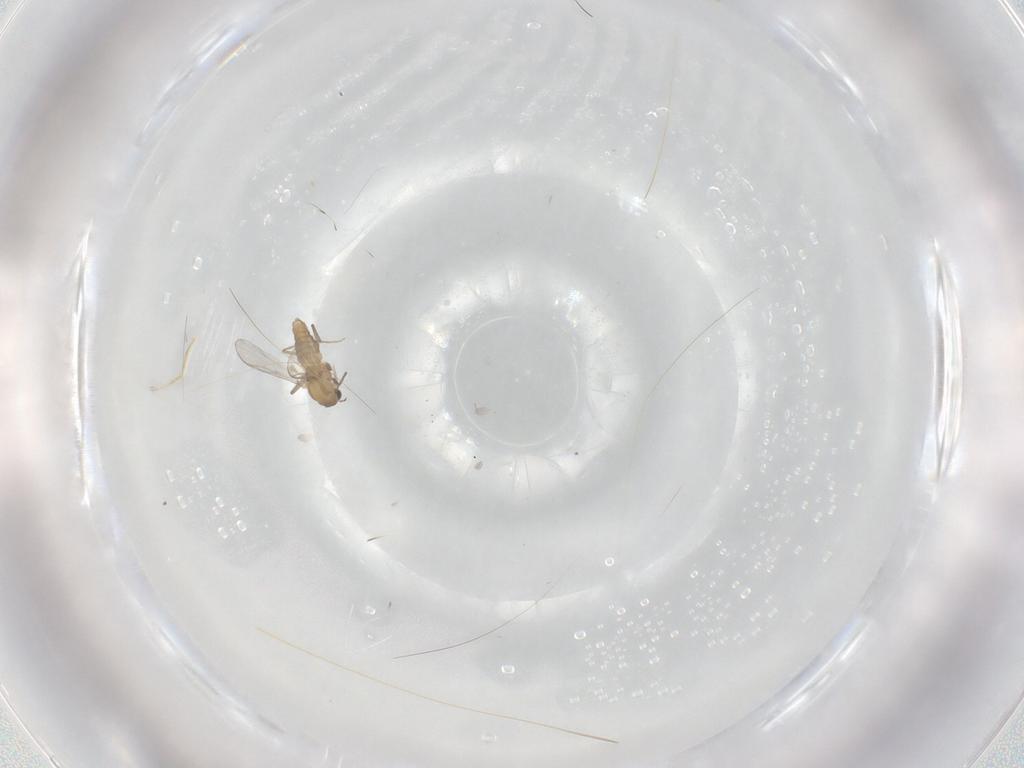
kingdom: Animalia
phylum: Arthropoda
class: Insecta
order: Diptera
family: Chironomidae
